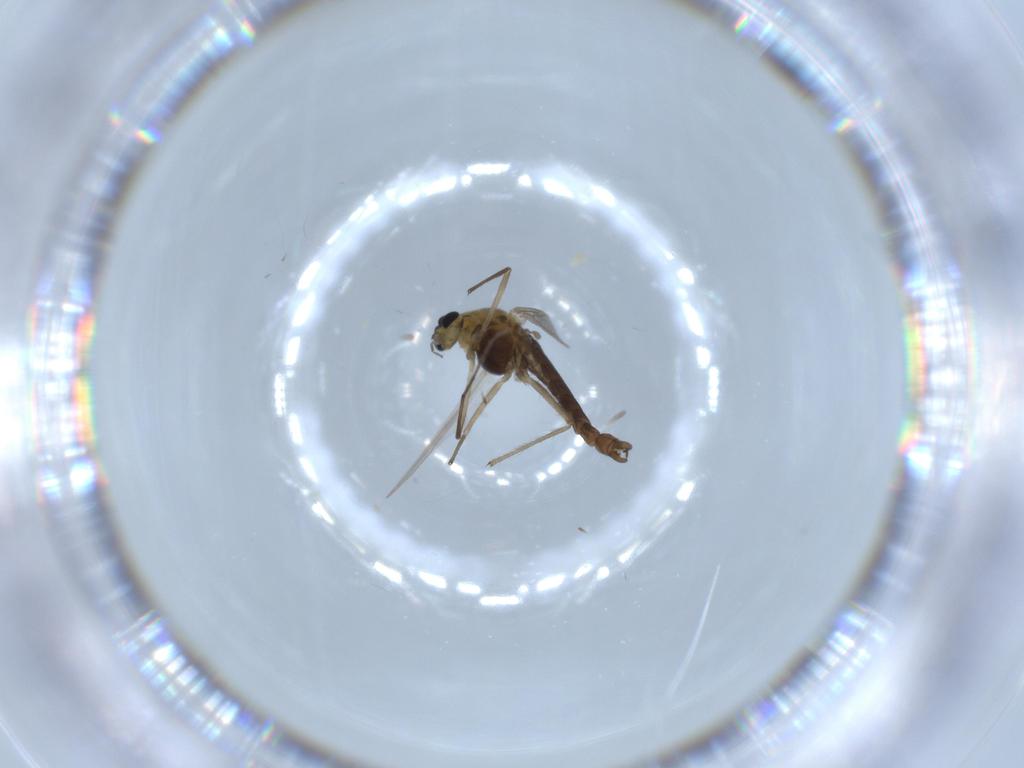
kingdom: Animalia
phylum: Arthropoda
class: Insecta
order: Diptera
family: Chironomidae
